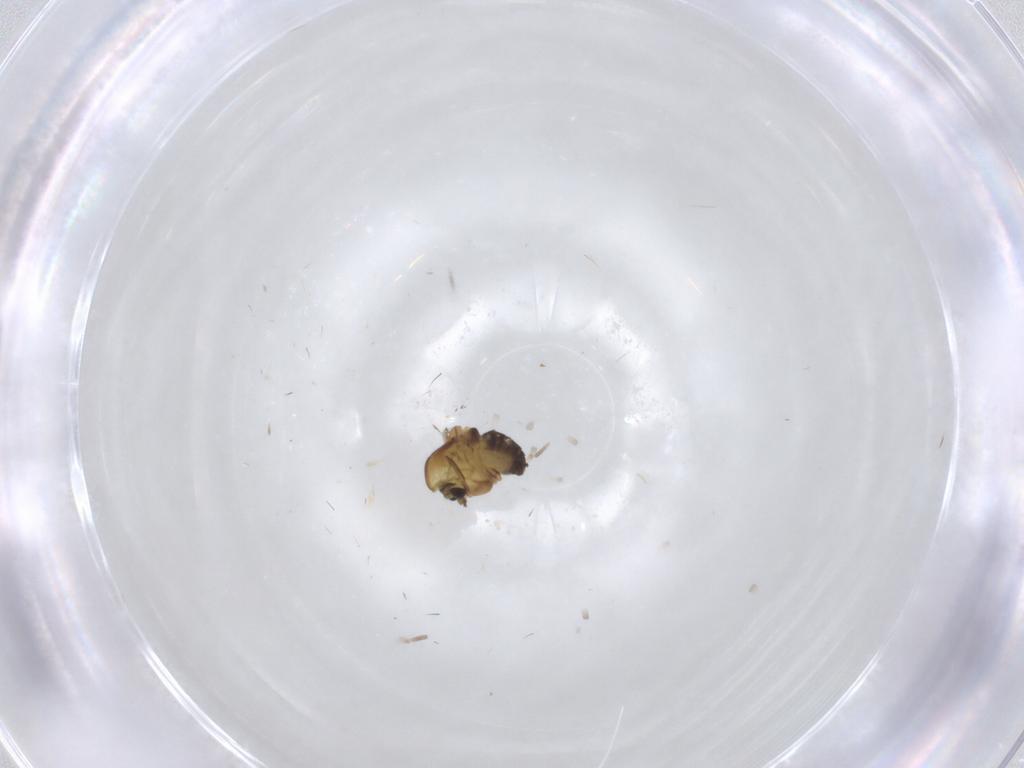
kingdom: Animalia
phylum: Arthropoda
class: Insecta
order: Diptera
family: Chironomidae
